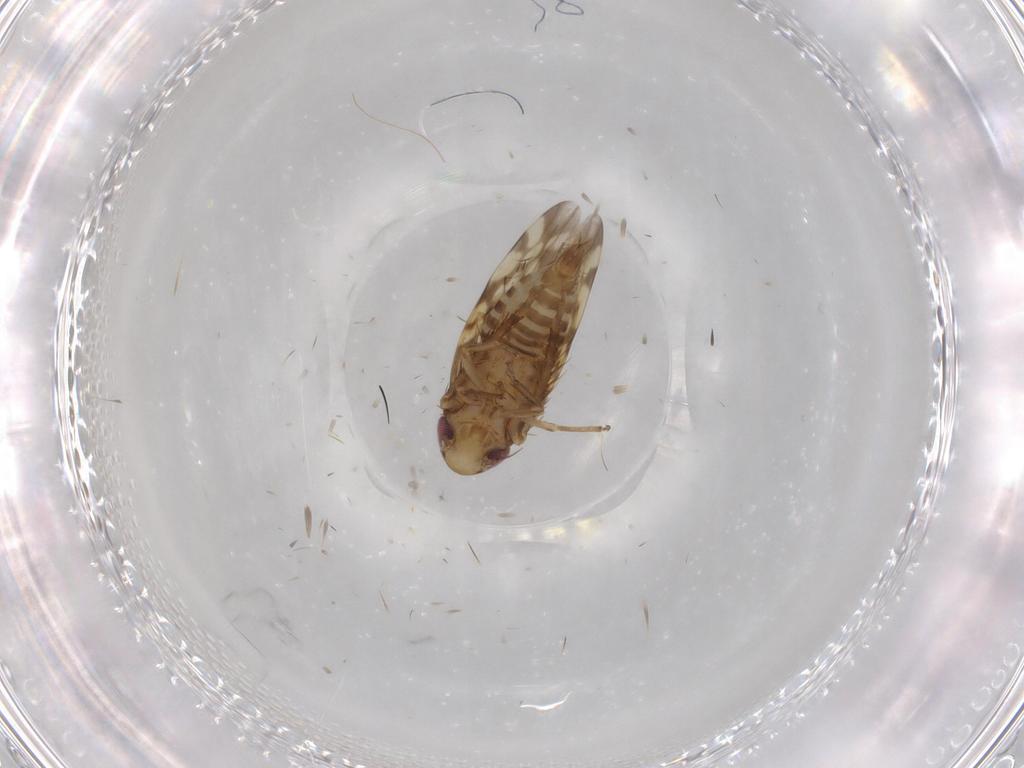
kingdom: Animalia
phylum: Arthropoda
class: Insecta
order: Hemiptera
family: Cicadellidae
